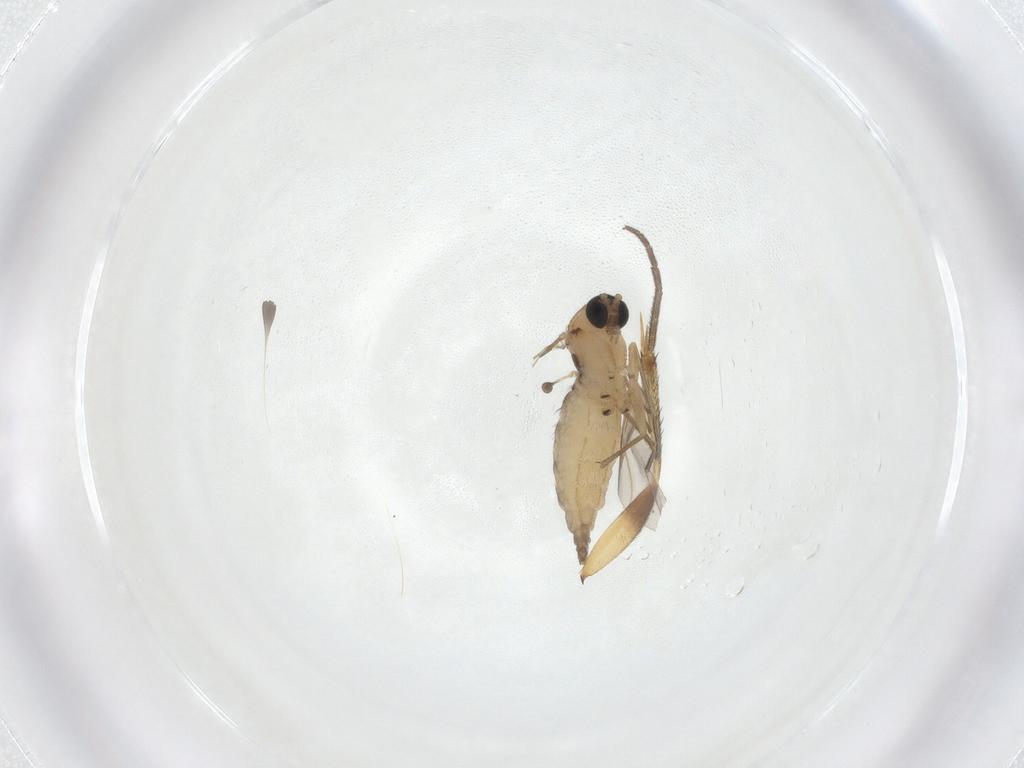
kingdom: Animalia
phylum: Arthropoda
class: Insecta
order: Diptera
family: Sciaridae
